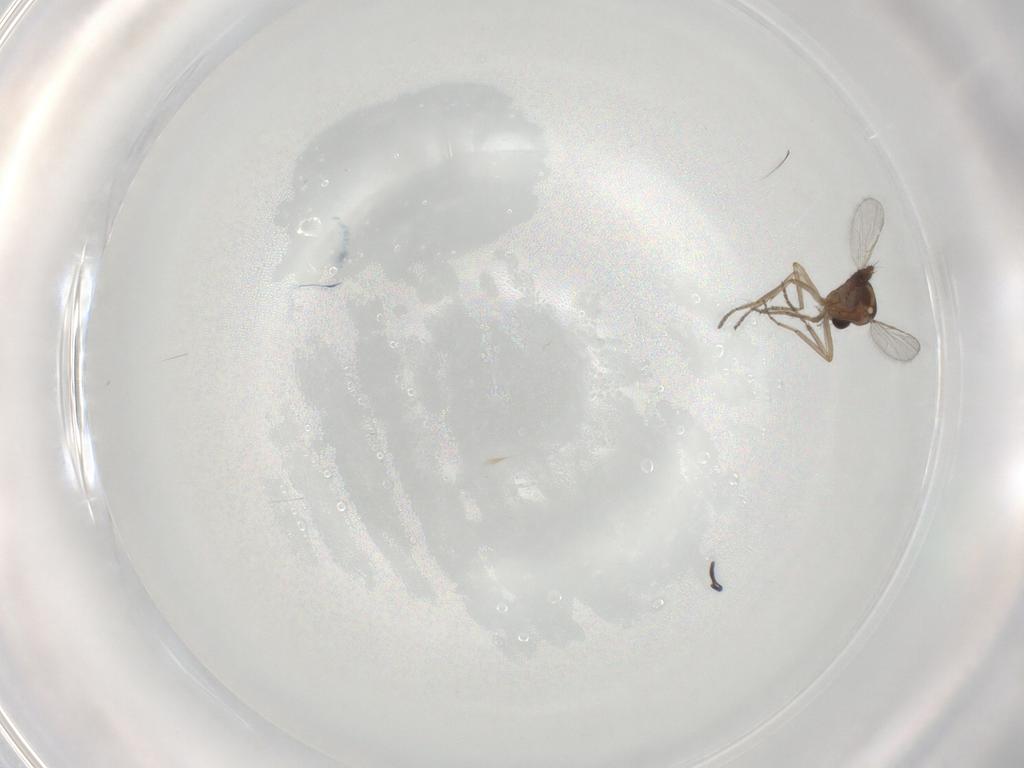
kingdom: Animalia
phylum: Arthropoda
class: Insecta
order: Diptera
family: Ceratopogonidae
